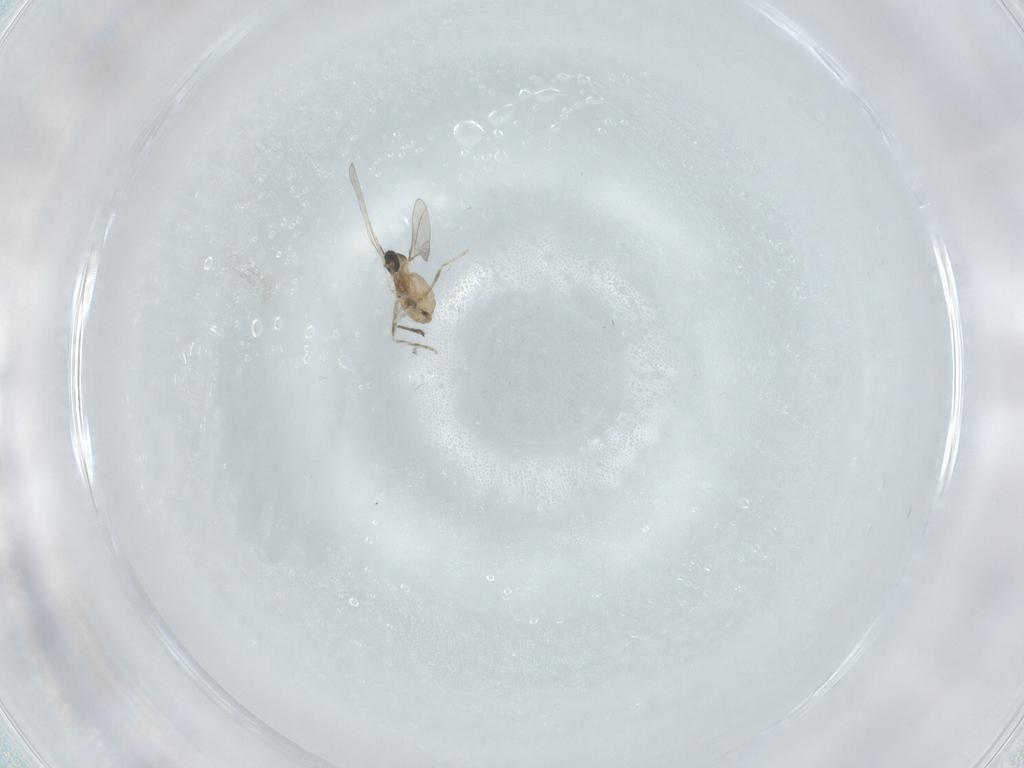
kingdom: Animalia
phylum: Arthropoda
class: Insecta
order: Diptera
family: Cecidomyiidae
